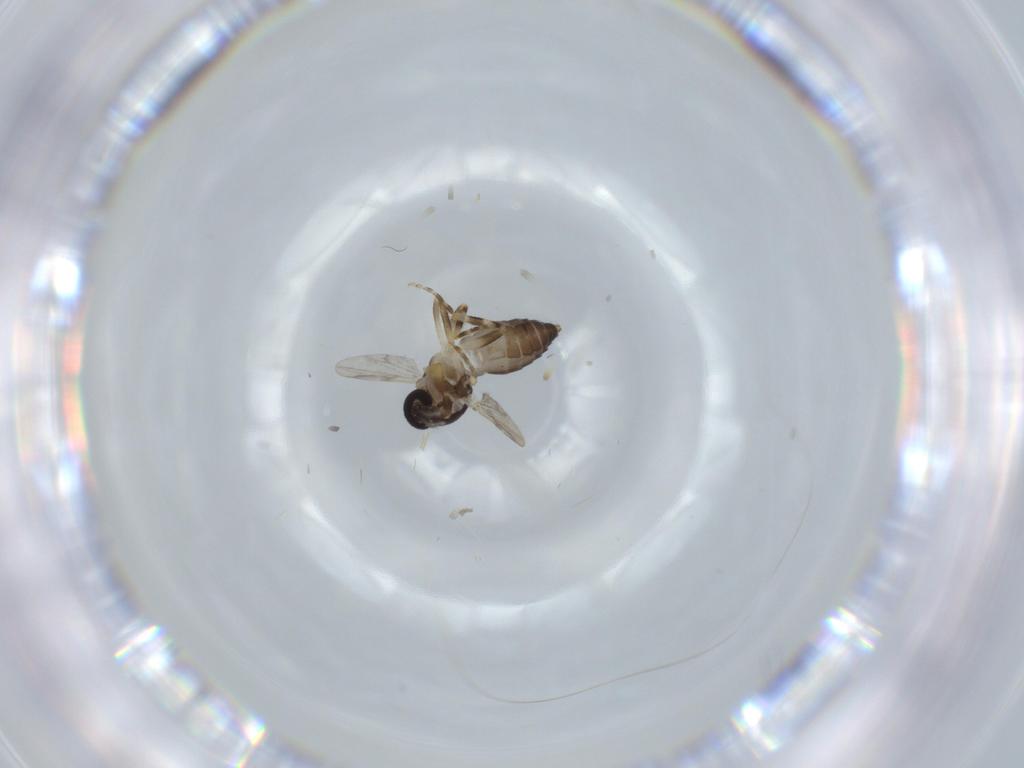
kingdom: Animalia
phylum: Arthropoda
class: Insecta
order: Diptera
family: Ceratopogonidae
